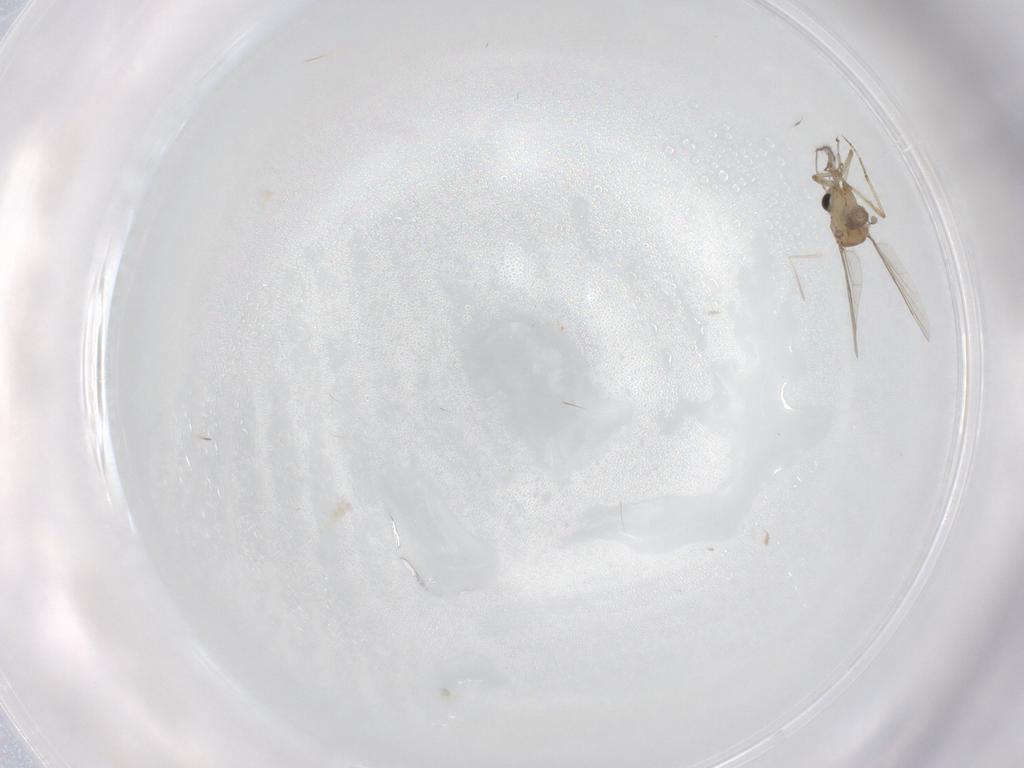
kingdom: Animalia
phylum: Arthropoda
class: Insecta
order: Diptera
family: Ceratopogonidae
